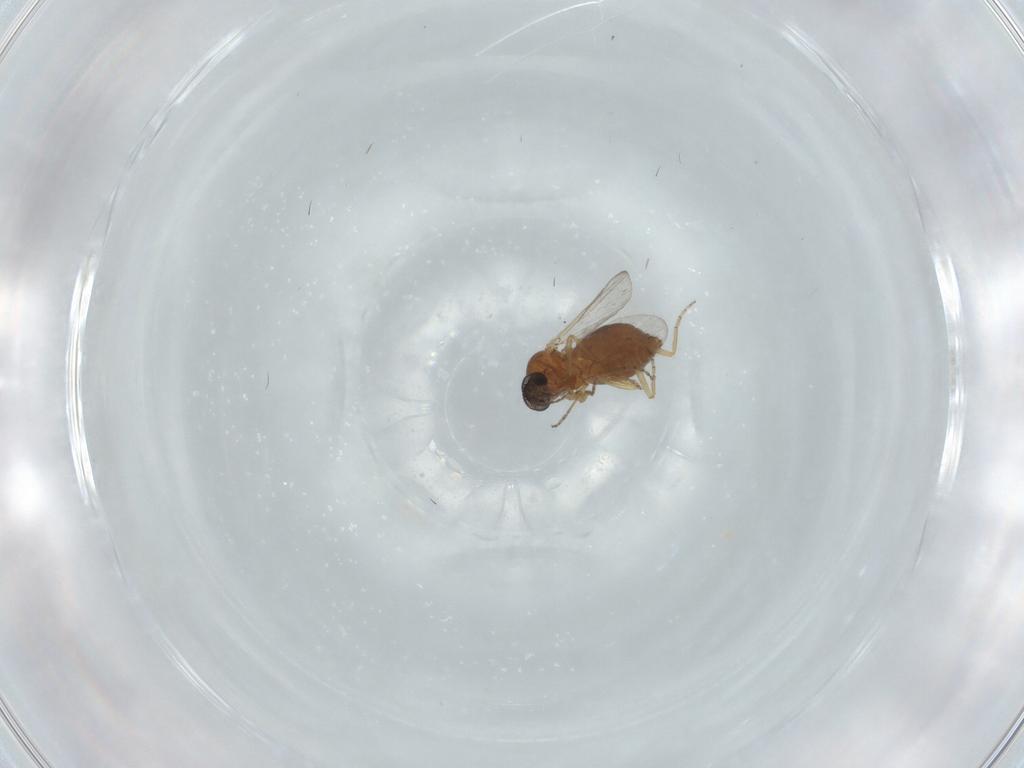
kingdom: Animalia
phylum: Arthropoda
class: Insecta
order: Diptera
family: Ceratopogonidae
